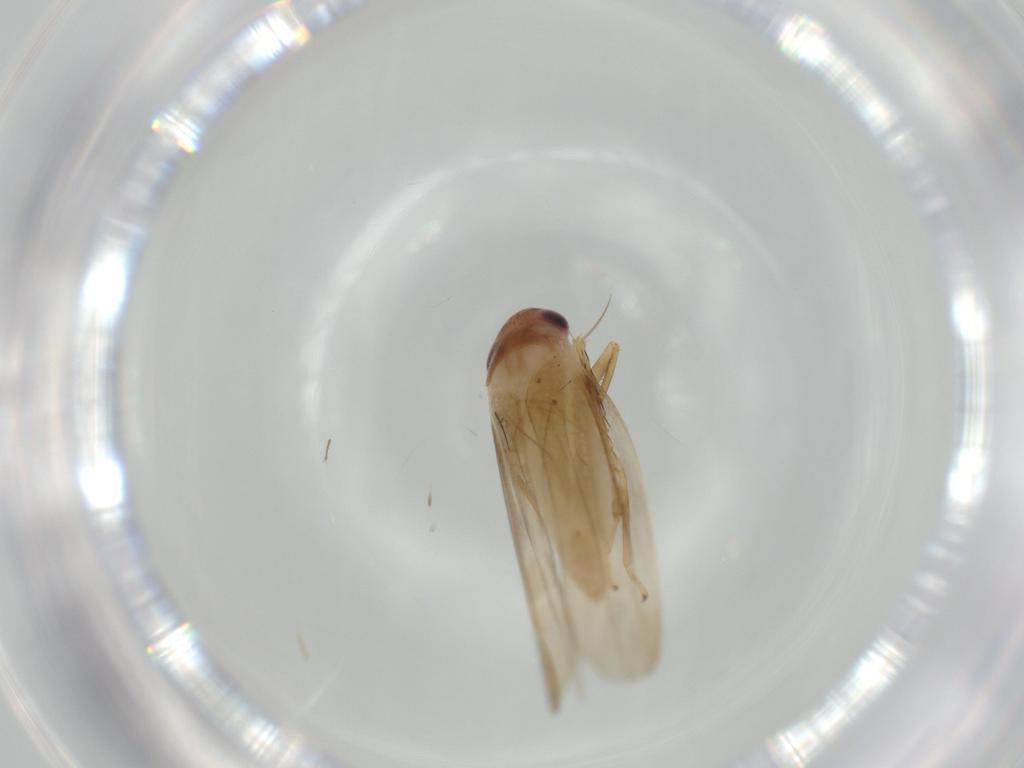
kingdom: Animalia
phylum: Arthropoda
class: Insecta
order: Hemiptera
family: Cicadellidae
